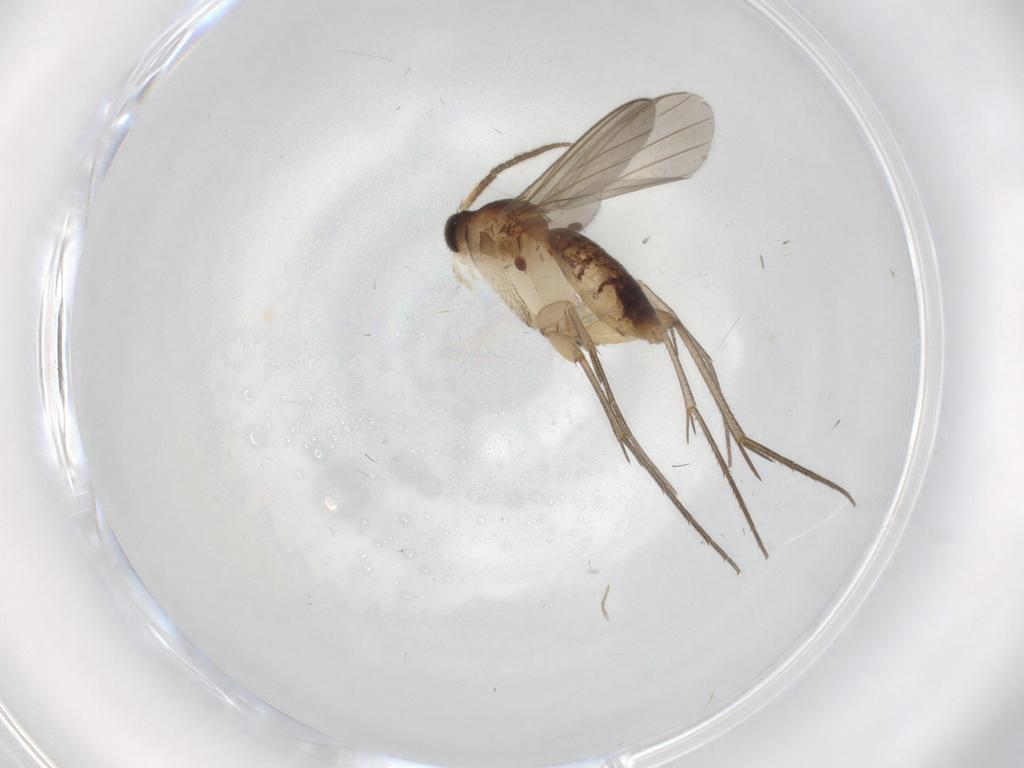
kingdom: Animalia
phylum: Arthropoda
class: Insecta
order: Diptera
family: Mycetophilidae
